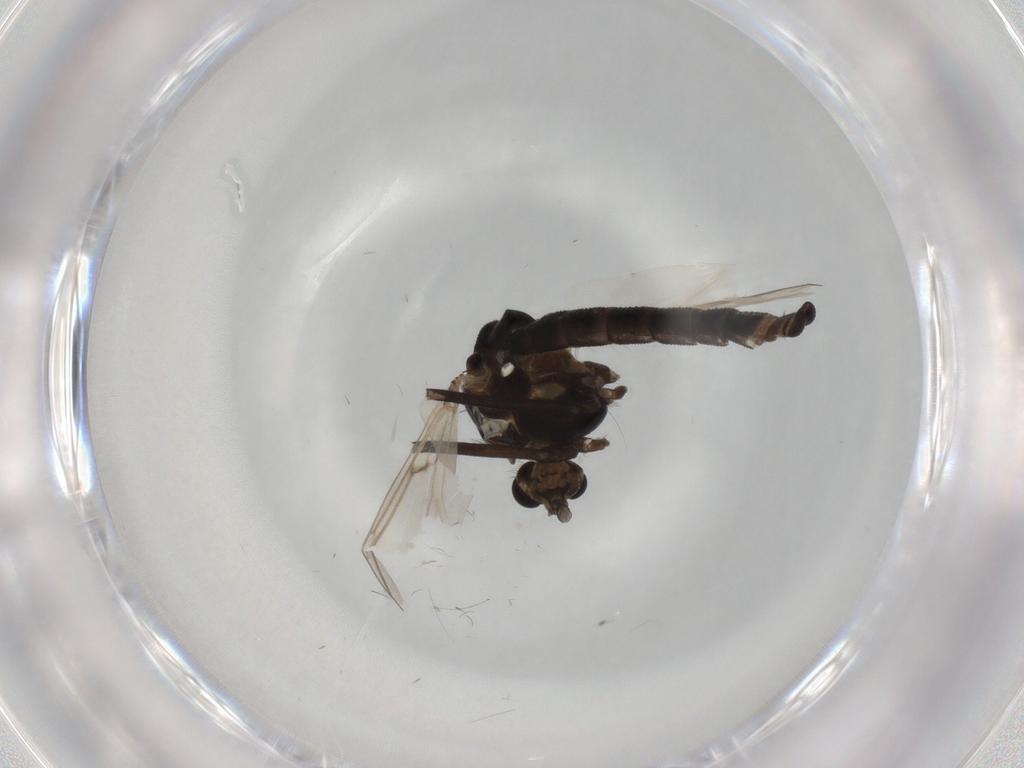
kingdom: Animalia
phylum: Arthropoda
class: Insecta
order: Diptera
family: Chironomidae
